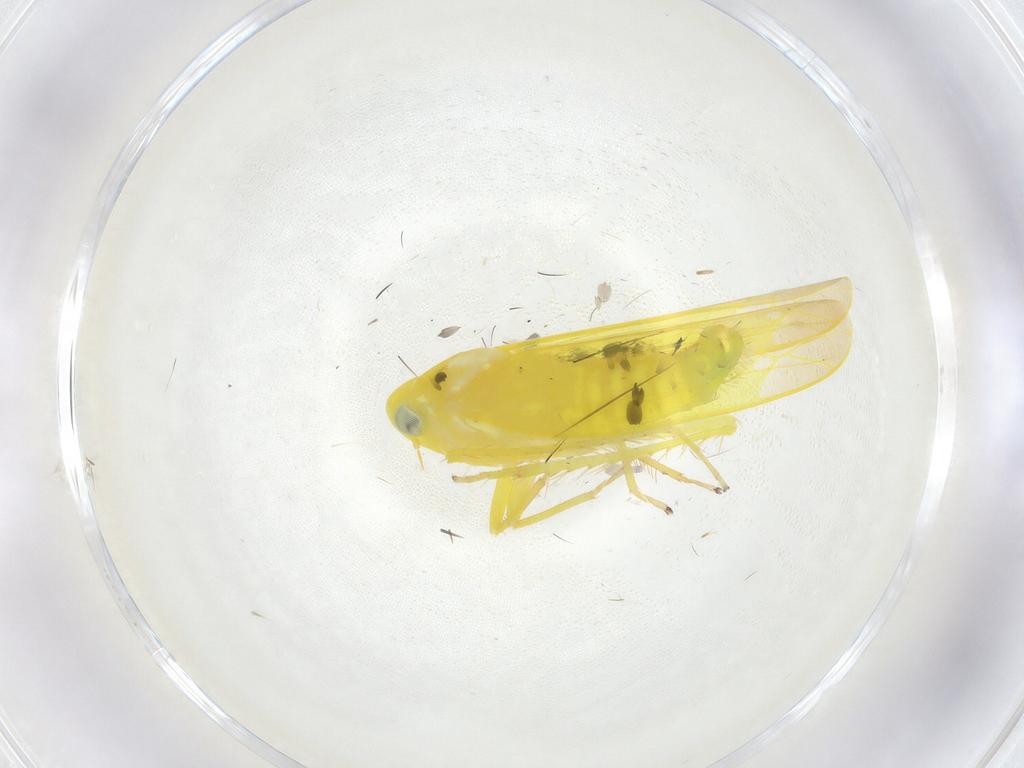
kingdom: Animalia
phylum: Arthropoda
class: Insecta
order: Hemiptera
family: Cicadellidae
